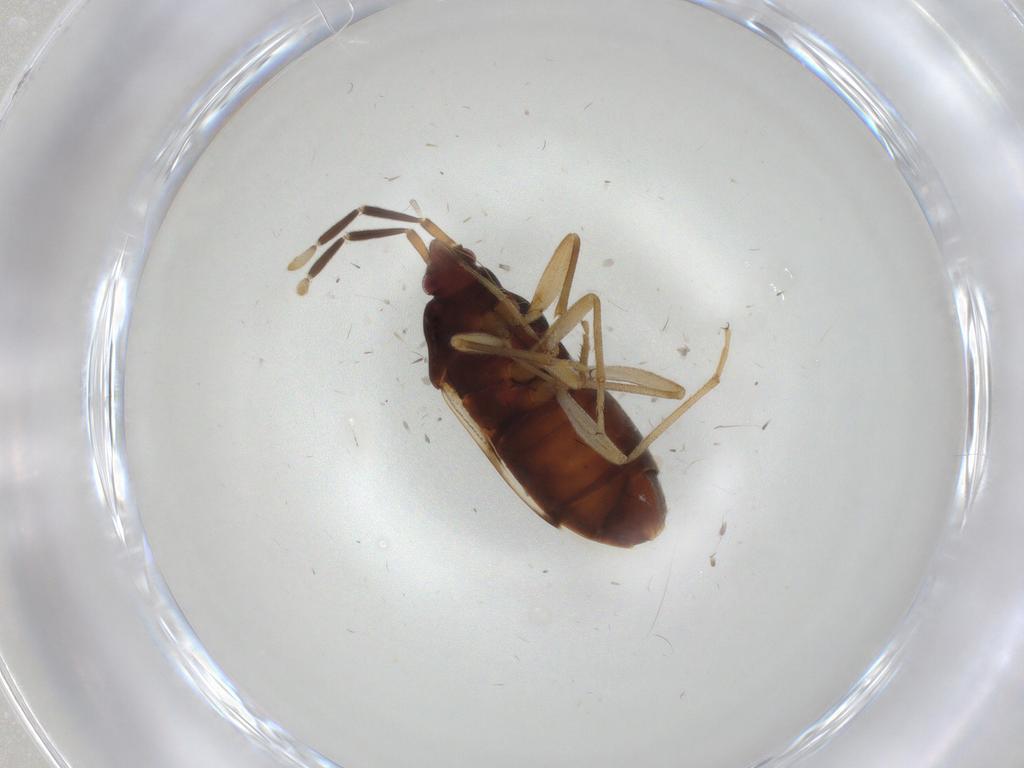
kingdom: Animalia
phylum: Arthropoda
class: Insecta
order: Hemiptera
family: Rhyparochromidae
